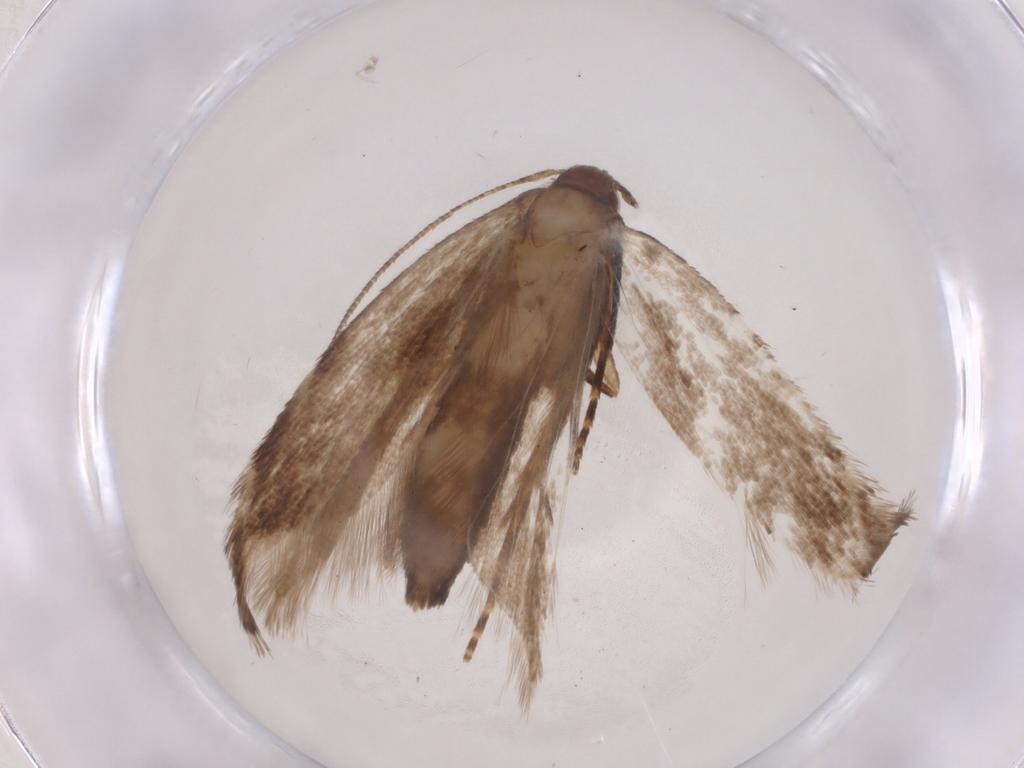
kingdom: Animalia
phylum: Arthropoda
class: Insecta
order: Lepidoptera
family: Gelechiidae
